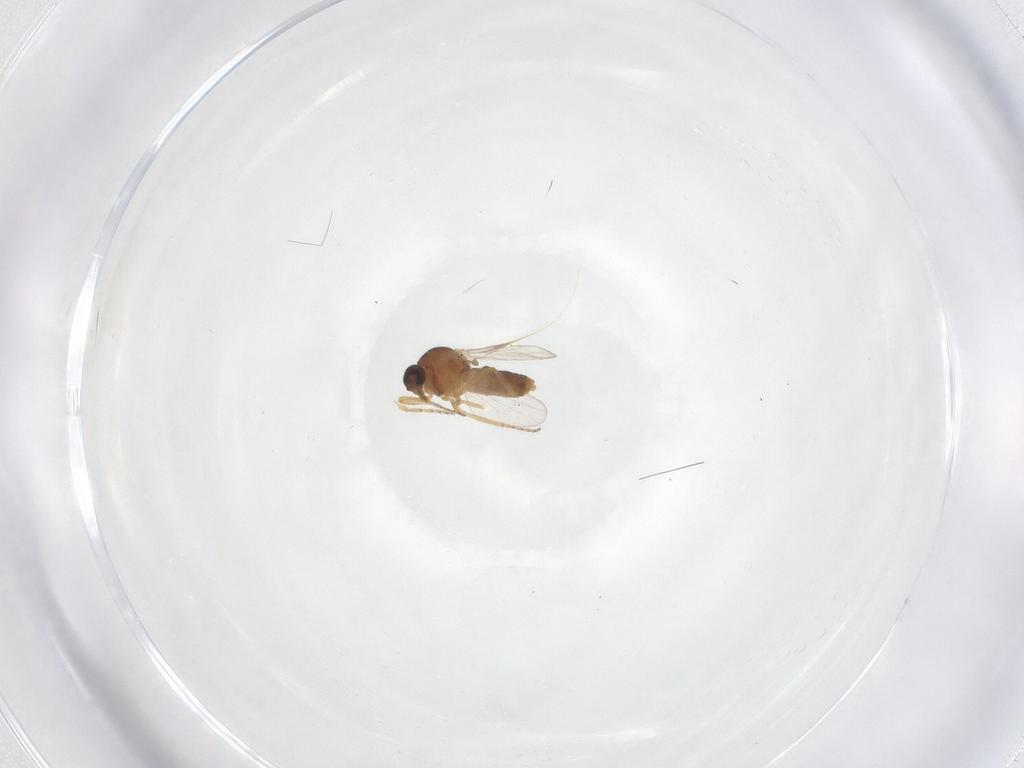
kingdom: Animalia
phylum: Arthropoda
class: Insecta
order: Diptera
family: Ceratopogonidae
